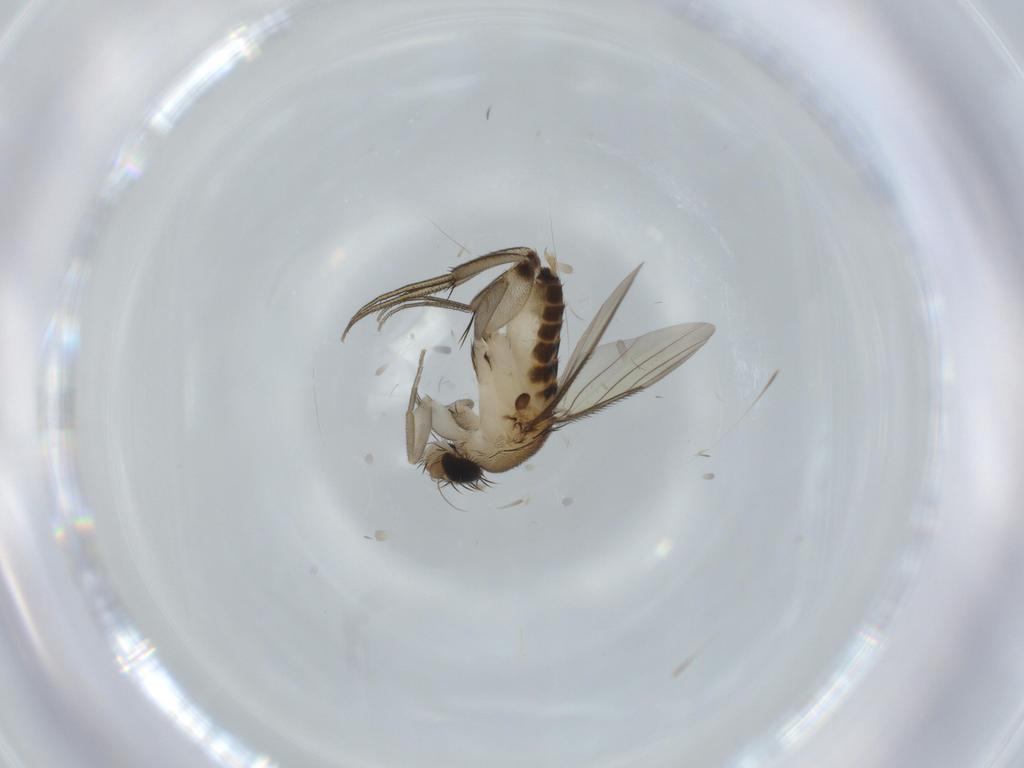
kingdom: Animalia
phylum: Arthropoda
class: Insecta
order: Diptera
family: Phoridae
